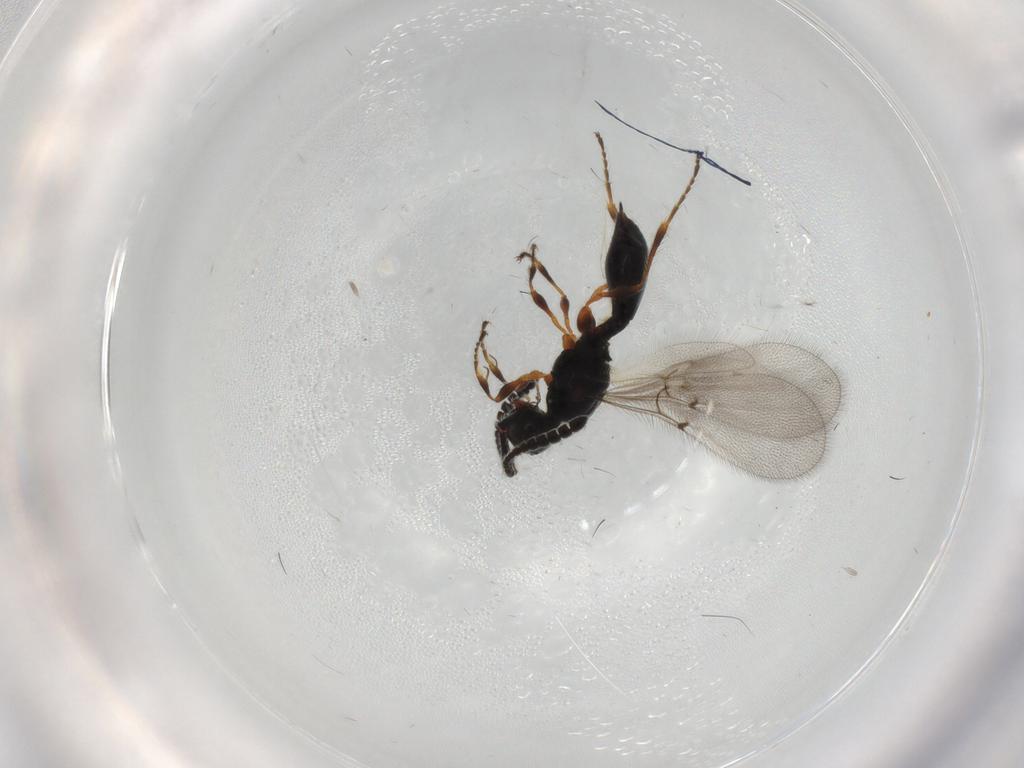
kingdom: Animalia
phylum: Arthropoda
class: Insecta
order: Hymenoptera
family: Diapriidae
